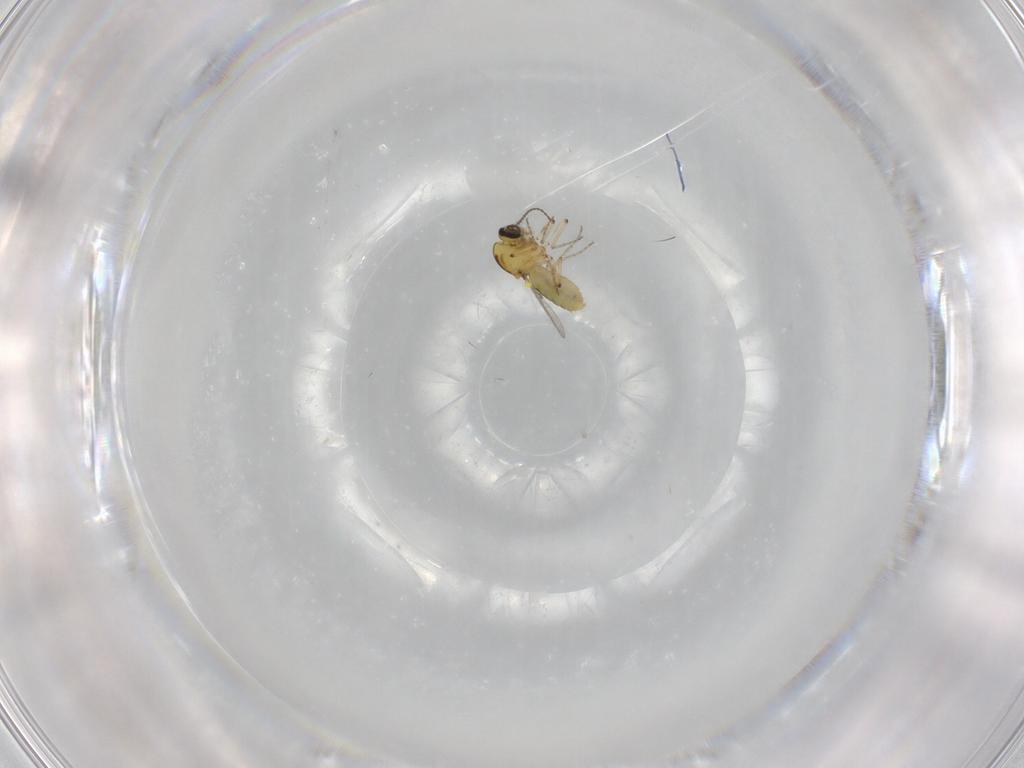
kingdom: Animalia
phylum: Arthropoda
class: Insecta
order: Diptera
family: Ceratopogonidae
